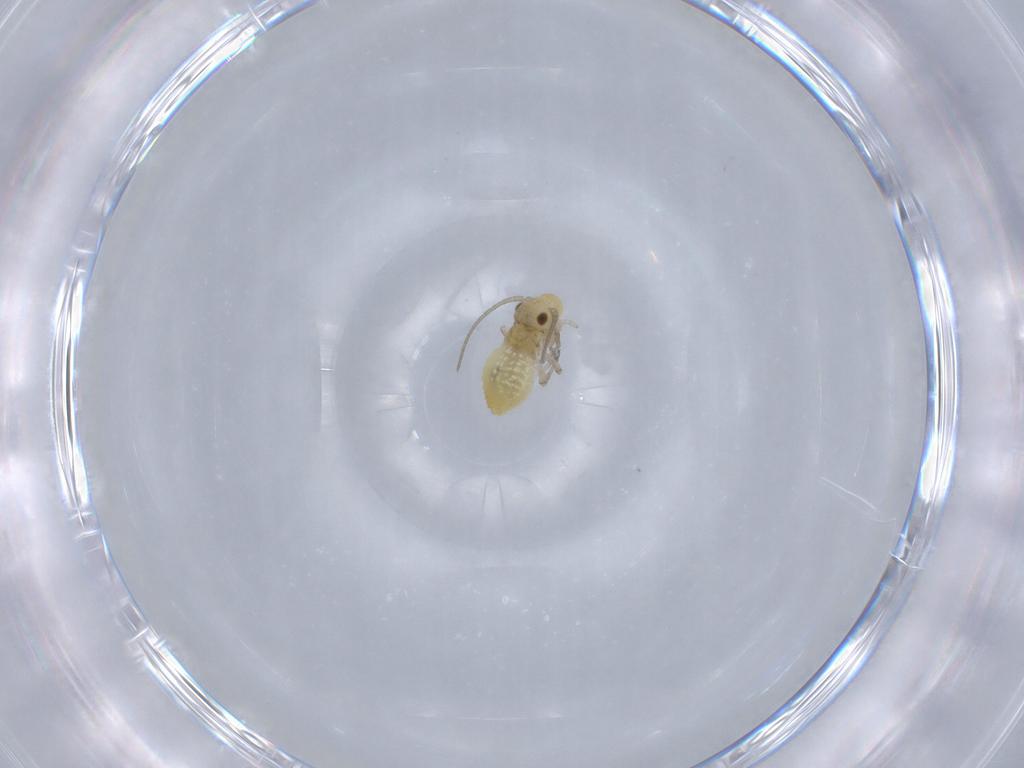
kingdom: Animalia
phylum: Arthropoda
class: Insecta
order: Psocodea
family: Caeciliusidae
